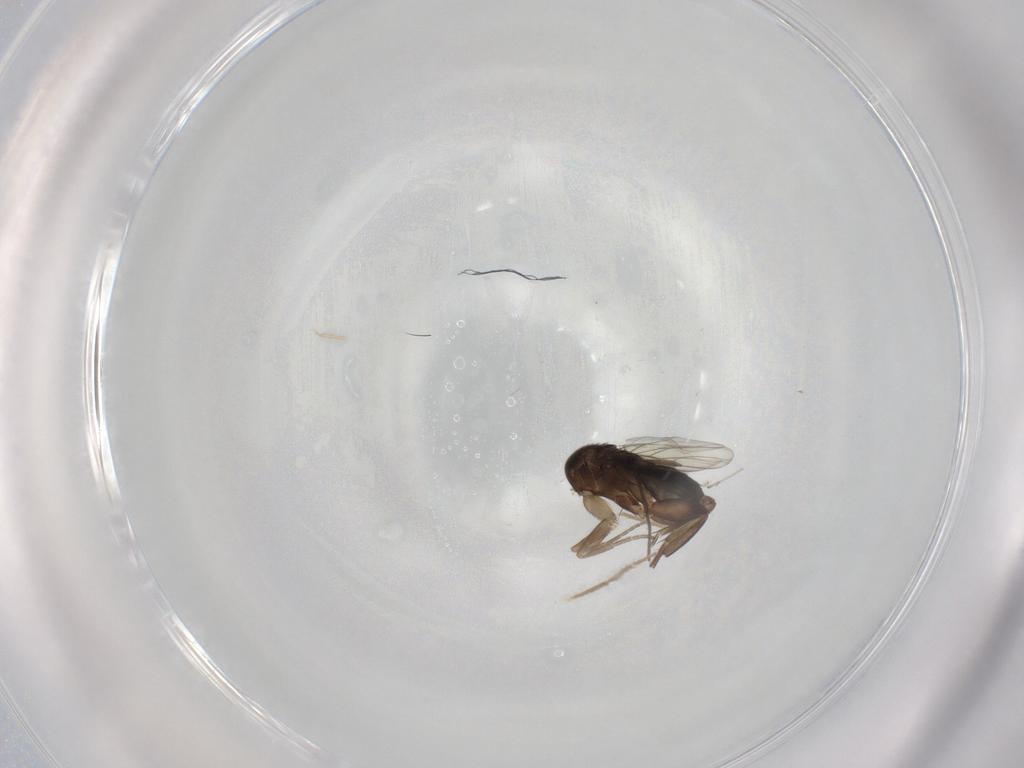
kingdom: Animalia
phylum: Arthropoda
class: Insecta
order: Diptera
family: Phoridae
